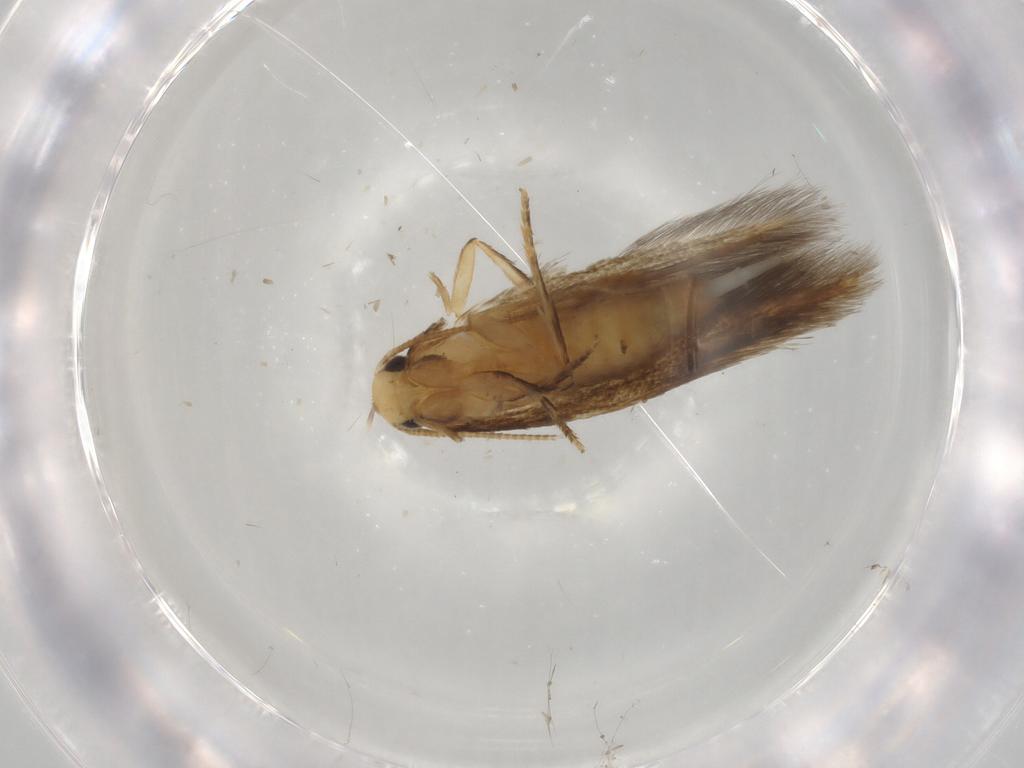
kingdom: Animalia
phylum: Arthropoda
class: Insecta
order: Lepidoptera
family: Tineidae
